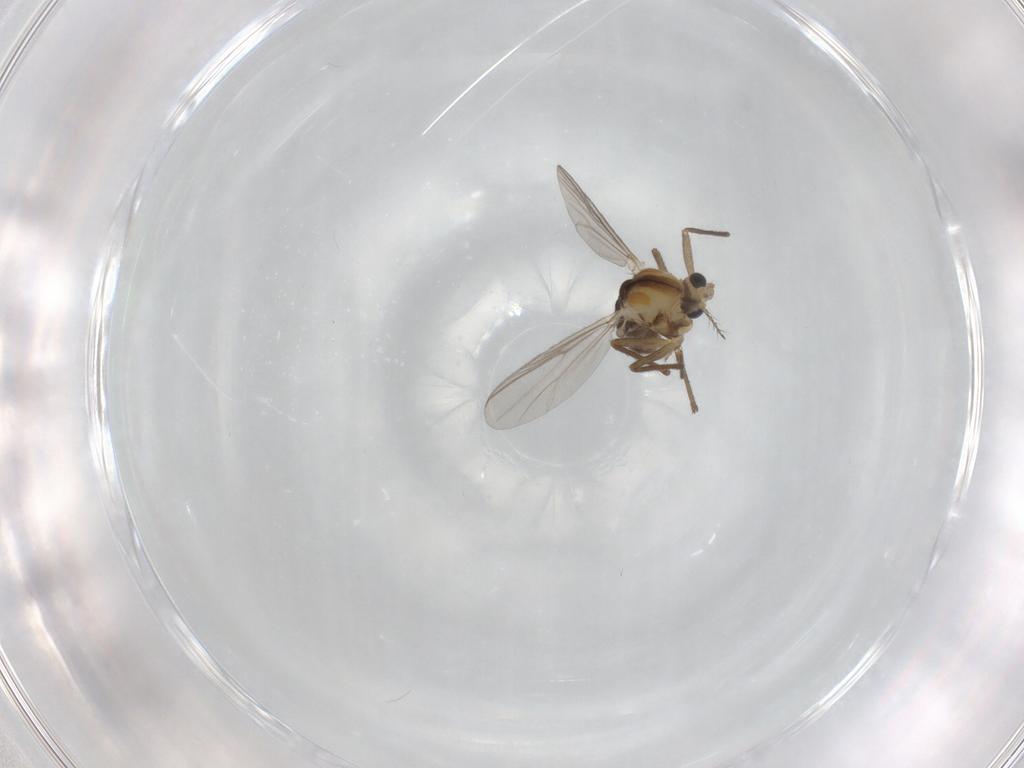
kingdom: Animalia
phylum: Arthropoda
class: Insecta
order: Diptera
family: Chironomidae
